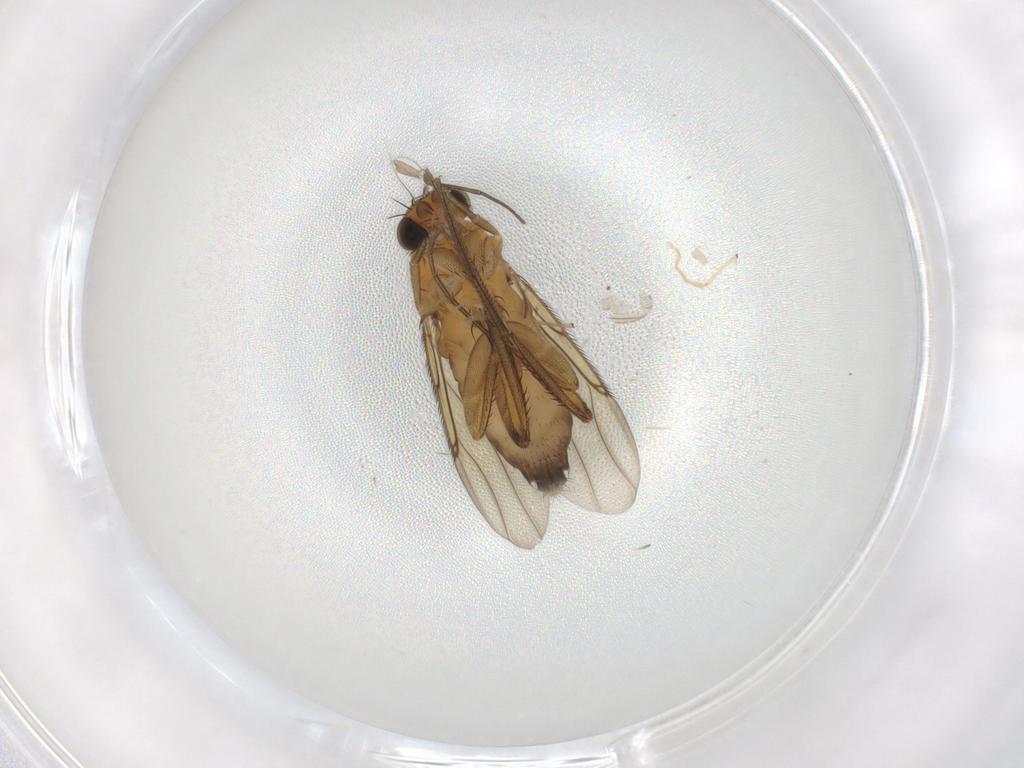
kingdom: Animalia
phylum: Arthropoda
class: Insecta
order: Diptera
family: Phoridae
